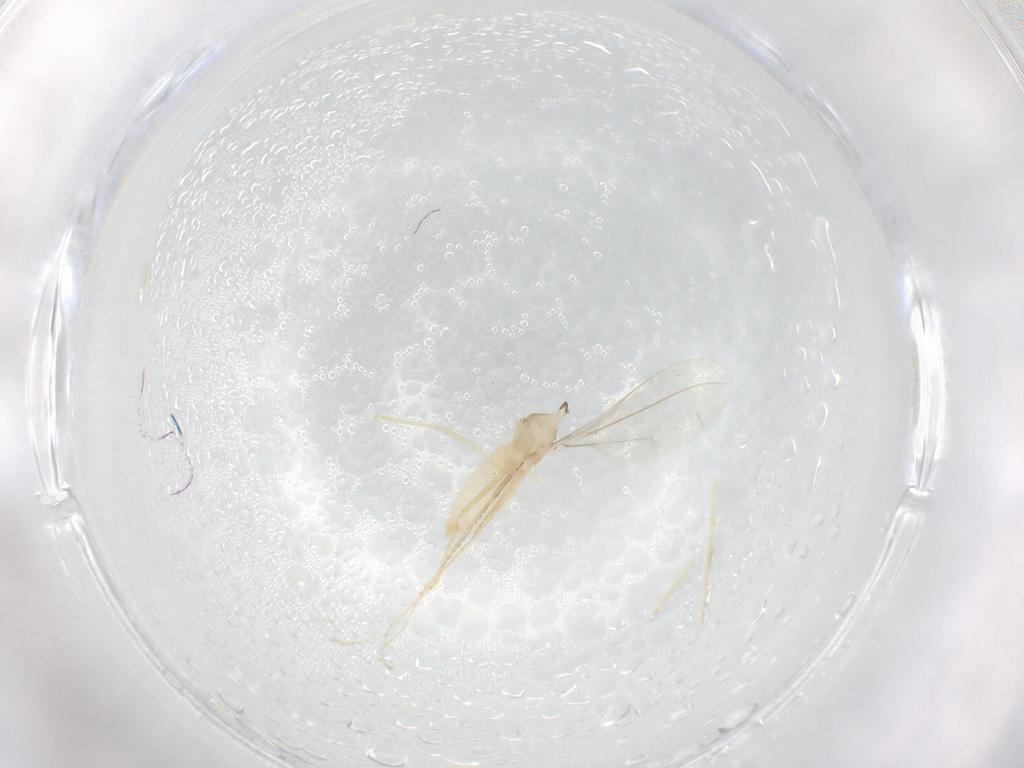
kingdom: Animalia
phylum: Arthropoda
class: Insecta
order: Diptera
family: Cecidomyiidae
